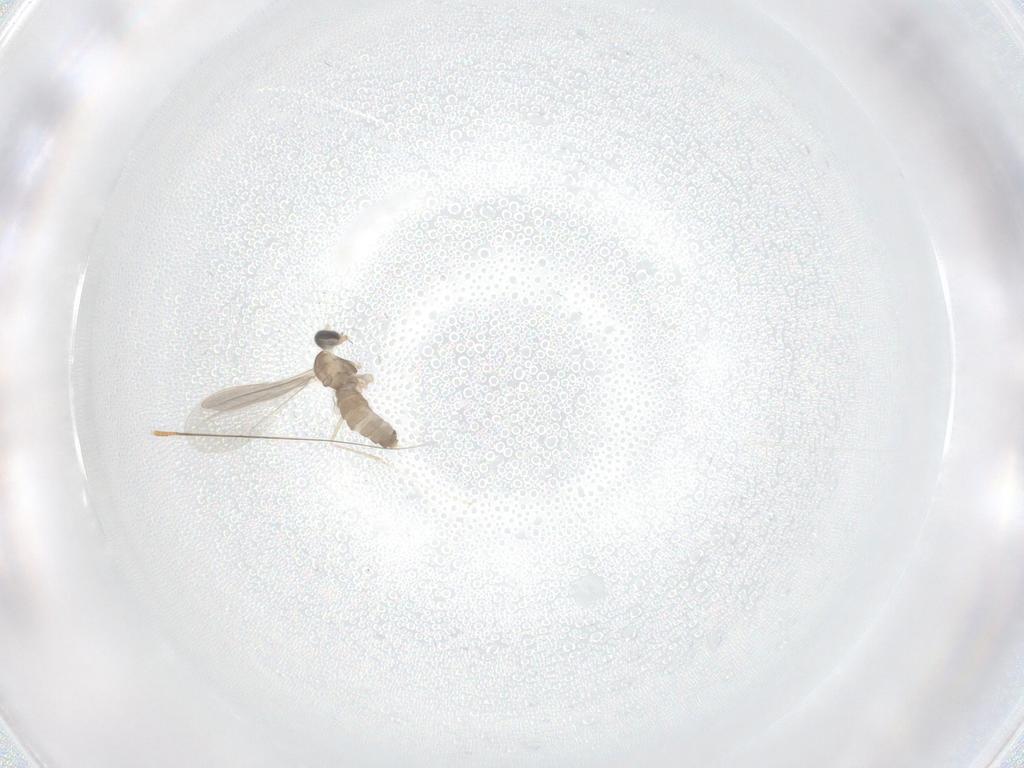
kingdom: Animalia
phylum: Arthropoda
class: Insecta
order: Diptera
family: Cecidomyiidae
